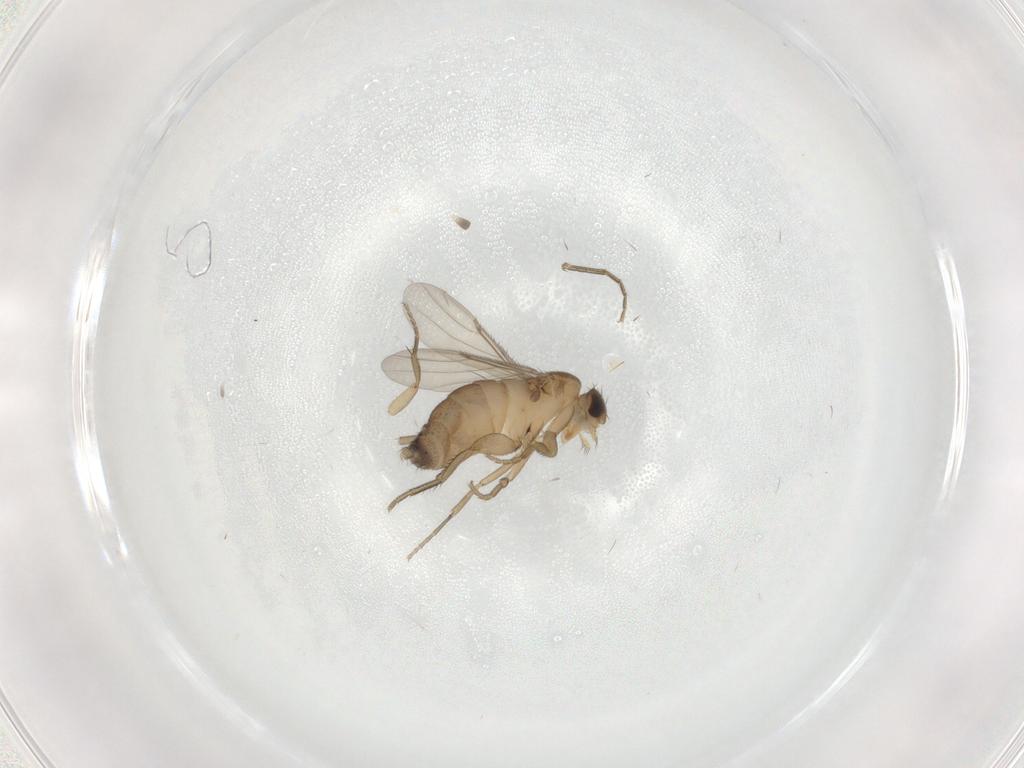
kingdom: Animalia
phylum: Arthropoda
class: Insecta
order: Diptera
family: Phoridae
